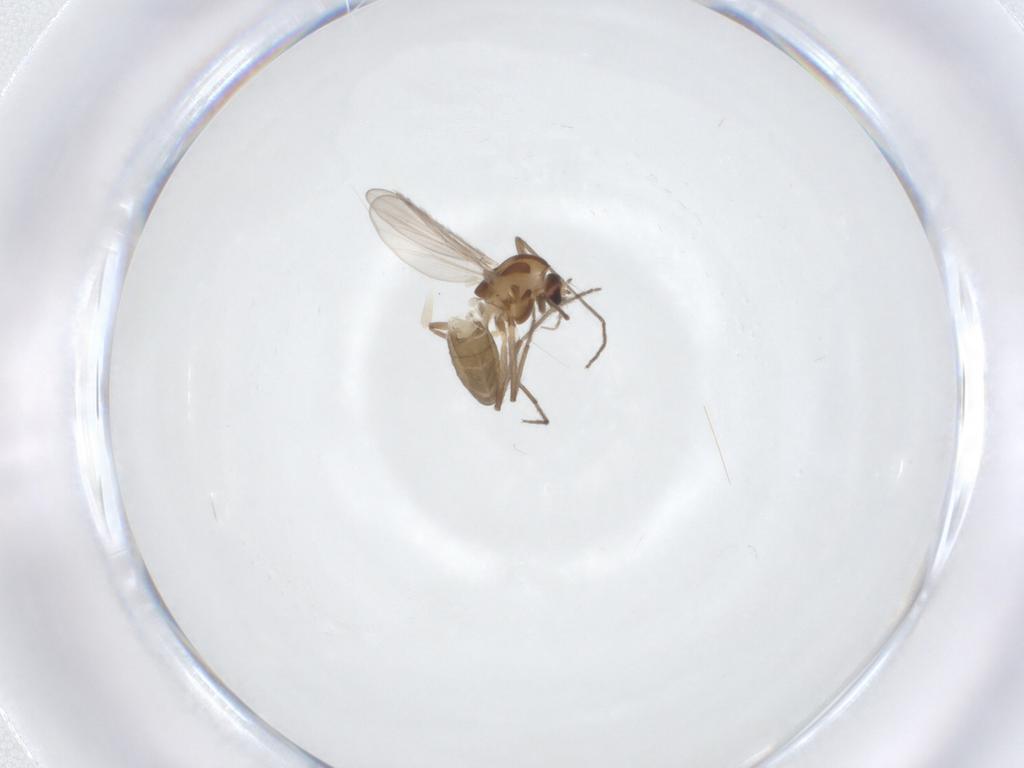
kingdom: Animalia
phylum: Arthropoda
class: Insecta
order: Diptera
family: Chironomidae
